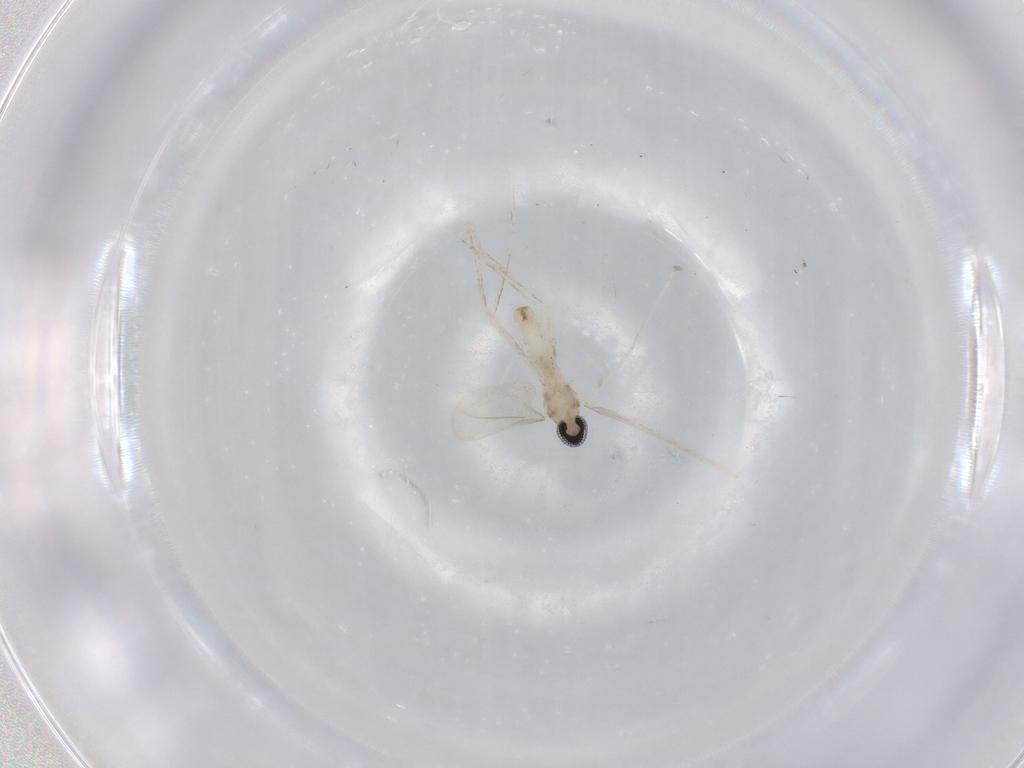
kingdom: Animalia
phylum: Arthropoda
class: Insecta
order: Diptera
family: Cecidomyiidae
